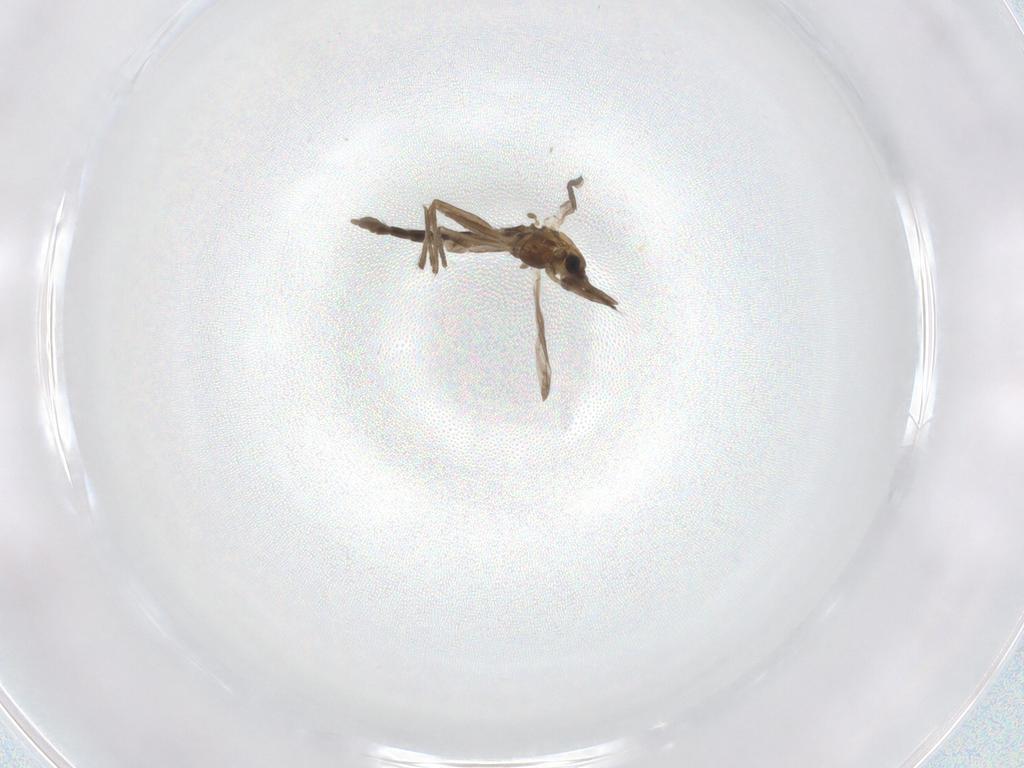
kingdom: Animalia
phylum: Arthropoda
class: Insecta
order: Diptera
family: Chironomidae
